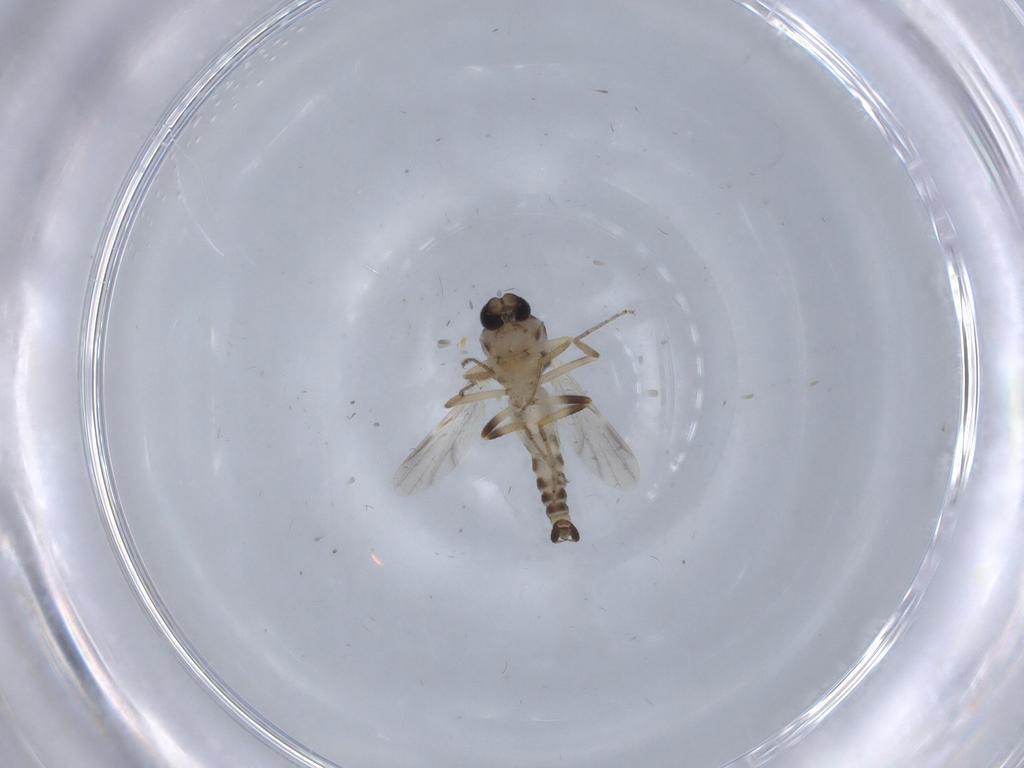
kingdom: Animalia
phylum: Arthropoda
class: Insecta
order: Diptera
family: Ceratopogonidae
